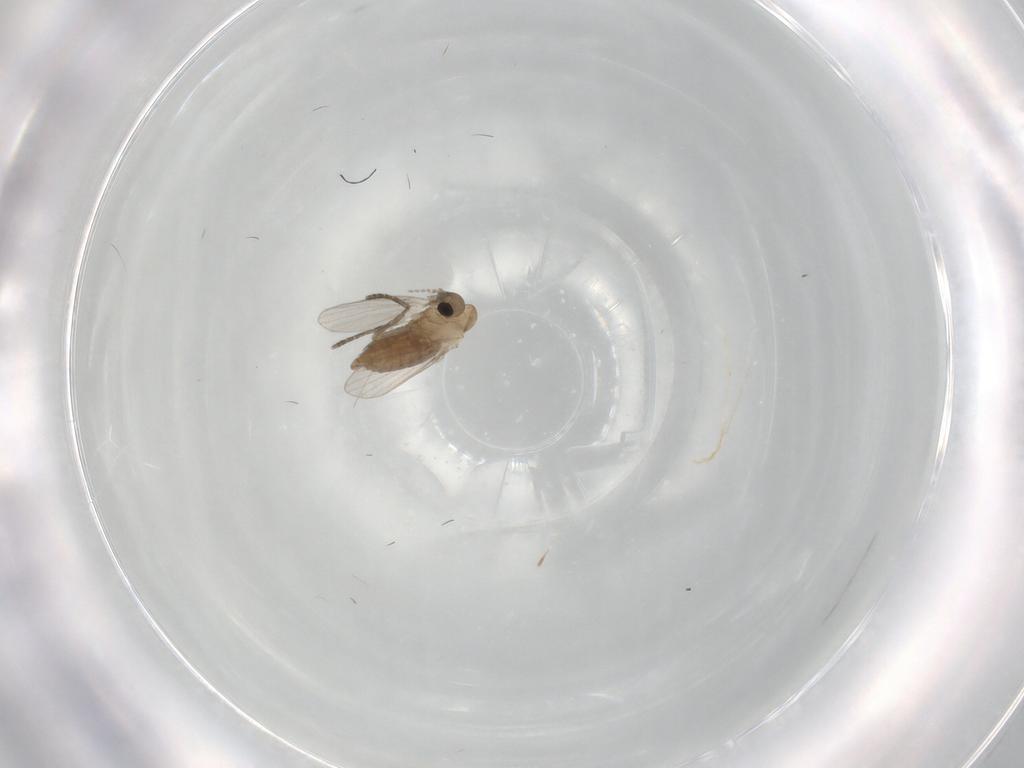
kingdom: Animalia
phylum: Arthropoda
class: Insecta
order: Diptera
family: Psychodidae
